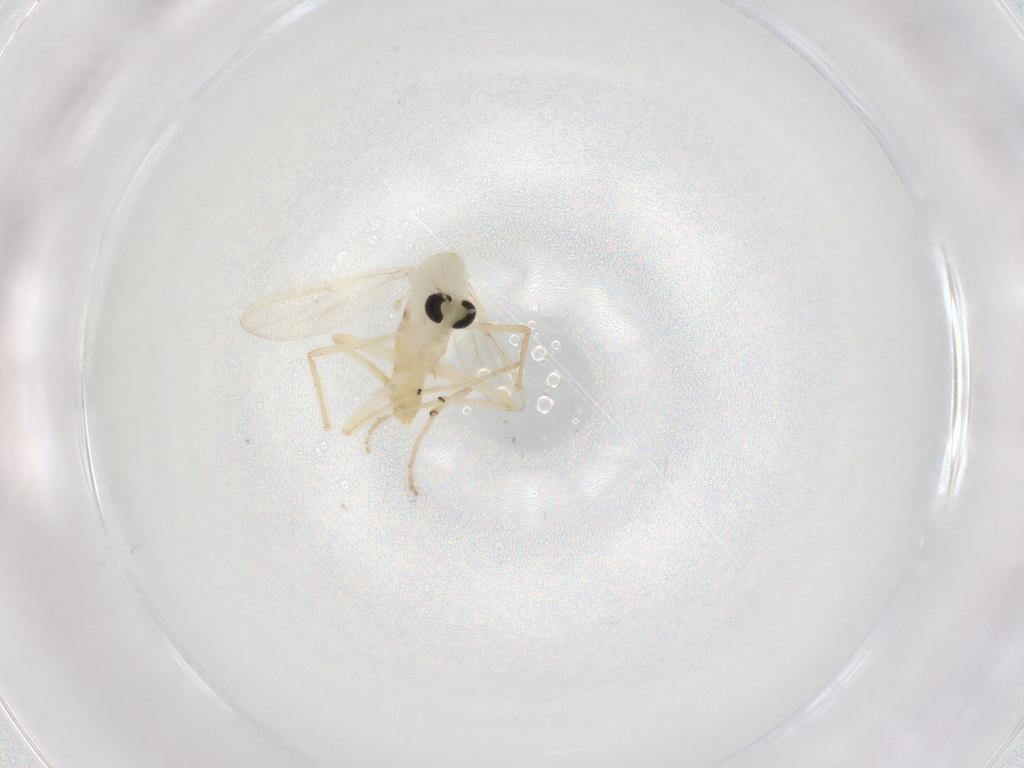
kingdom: Animalia
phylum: Arthropoda
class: Insecta
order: Diptera
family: Chironomidae
